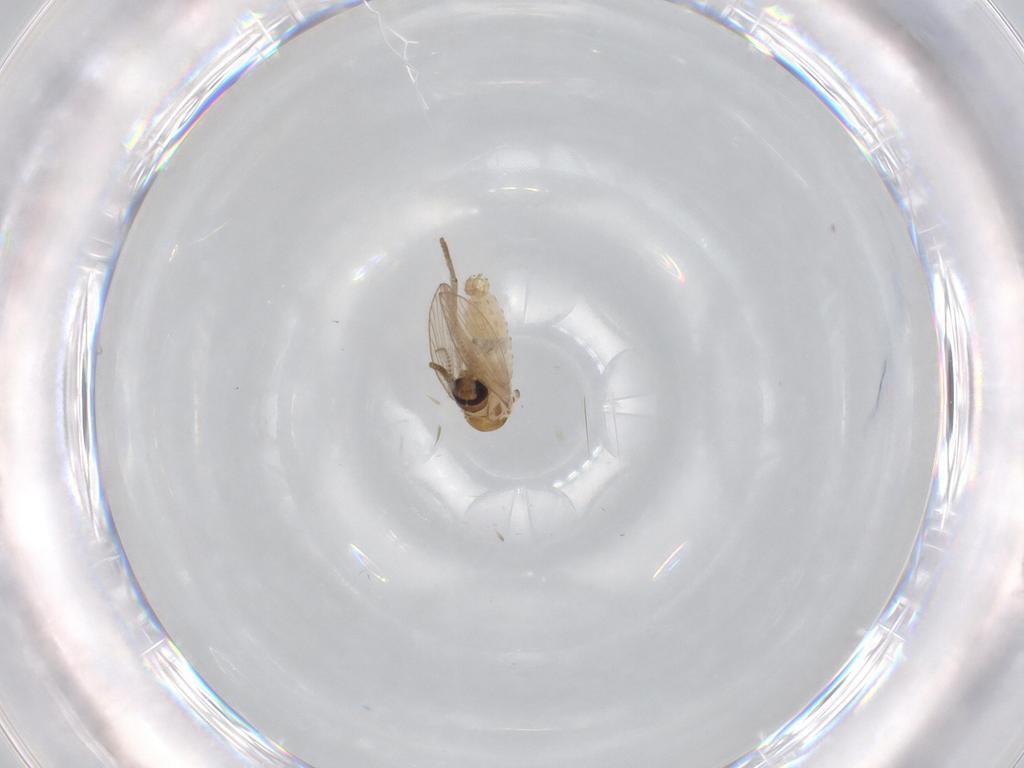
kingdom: Animalia
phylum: Arthropoda
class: Insecta
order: Diptera
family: Psychodidae
